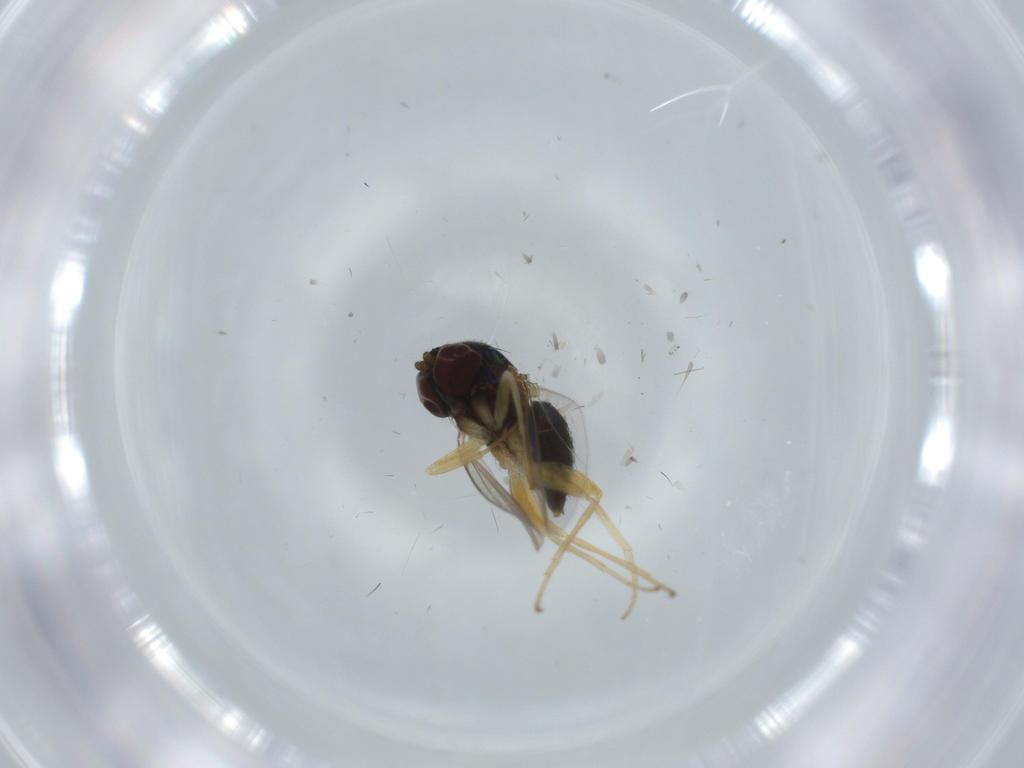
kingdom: Animalia
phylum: Arthropoda
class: Insecta
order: Diptera
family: Dolichopodidae
